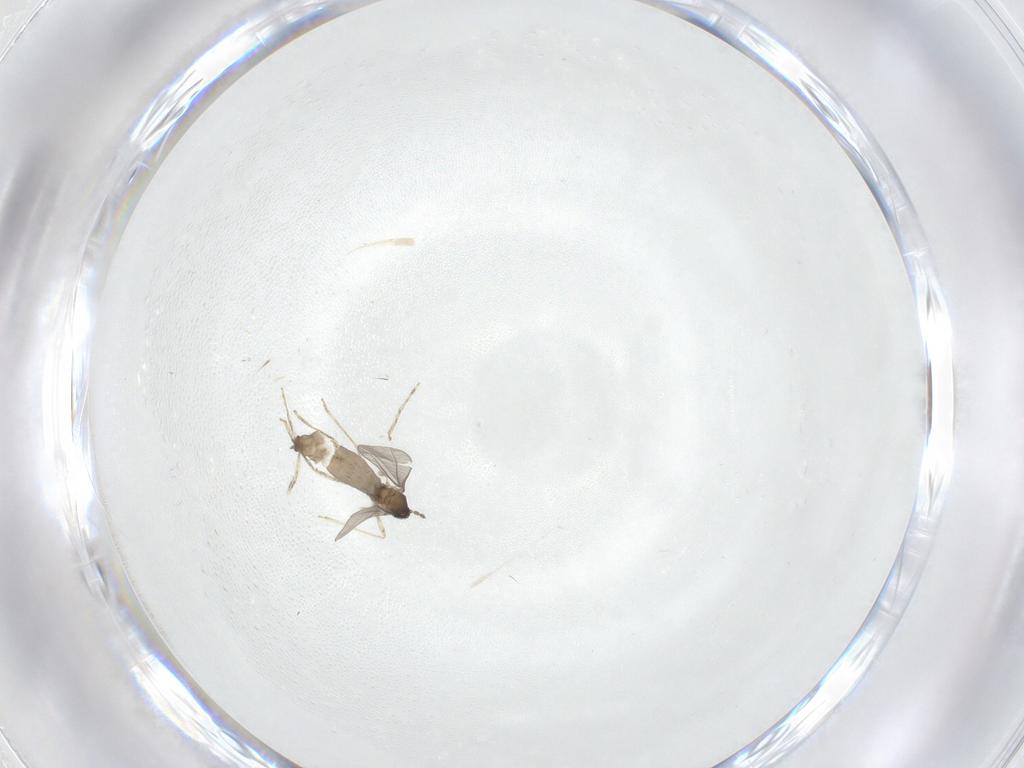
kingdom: Animalia
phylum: Arthropoda
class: Insecta
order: Diptera
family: Cecidomyiidae
